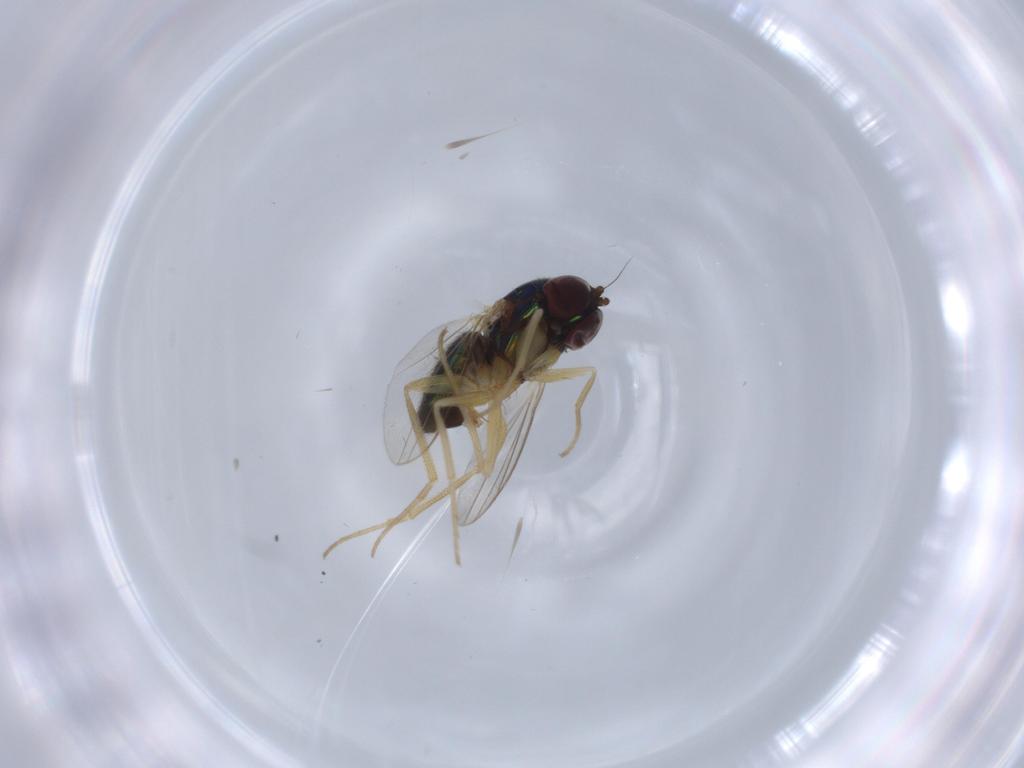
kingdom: Animalia
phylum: Arthropoda
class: Insecta
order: Diptera
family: Dolichopodidae
